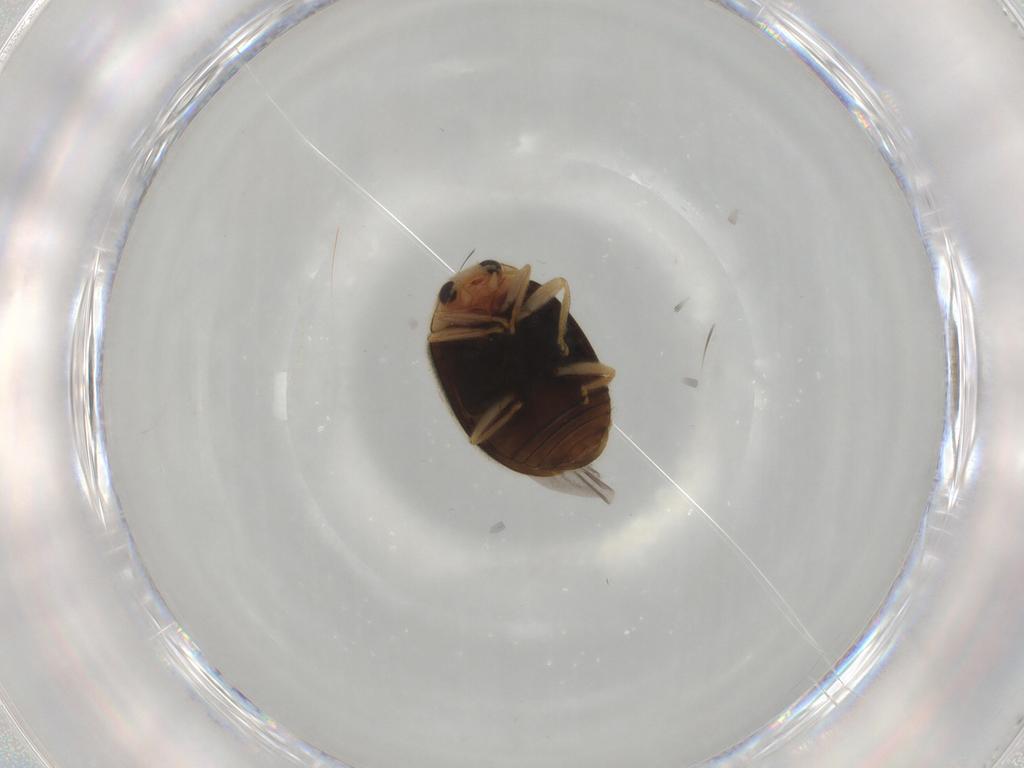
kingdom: Animalia
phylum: Arthropoda
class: Insecta
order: Coleoptera
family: Coccinellidae
